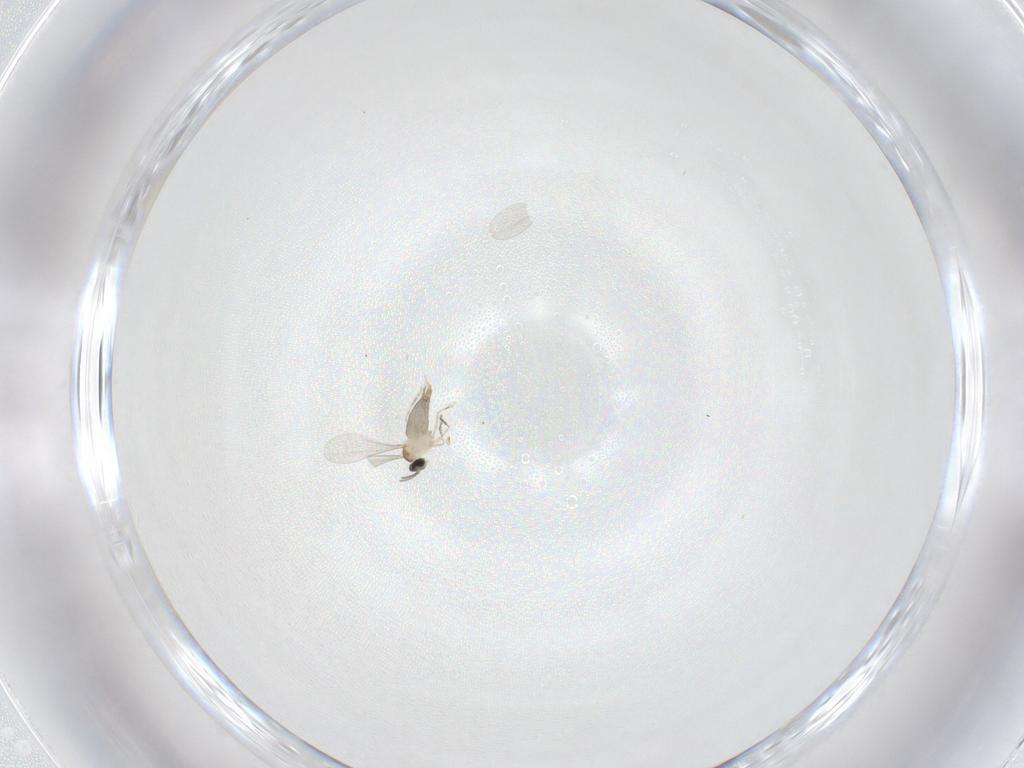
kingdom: Animalia
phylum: Arthropoda
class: Insecta
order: Diptera
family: Cecidomyiidae
